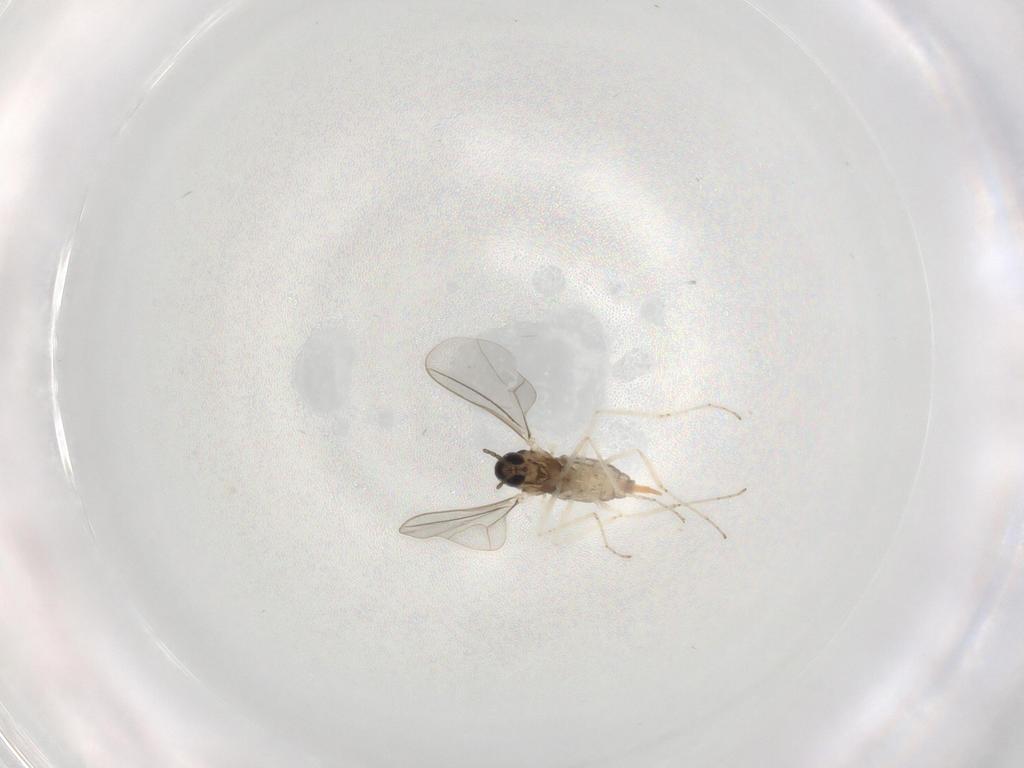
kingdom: Animalia
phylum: Arthropoda
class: Insecta
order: Diptera
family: Cecidomyiidae
